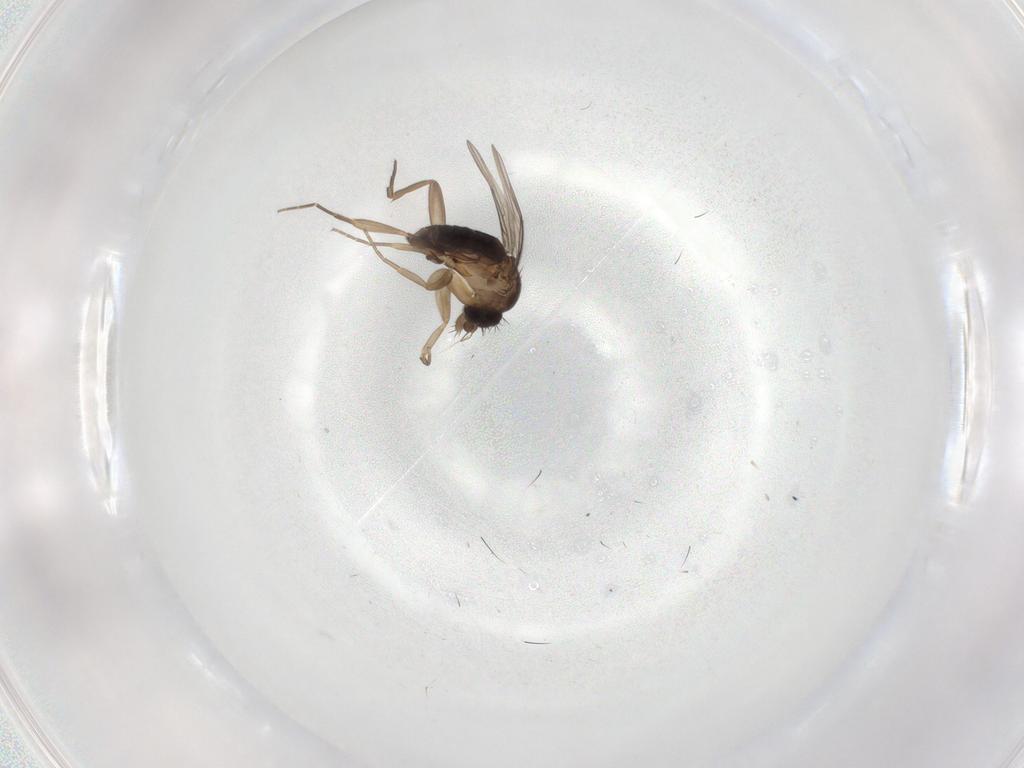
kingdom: Animalia
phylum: Arthropoda
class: Insecta
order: Diptera
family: Phoridae
